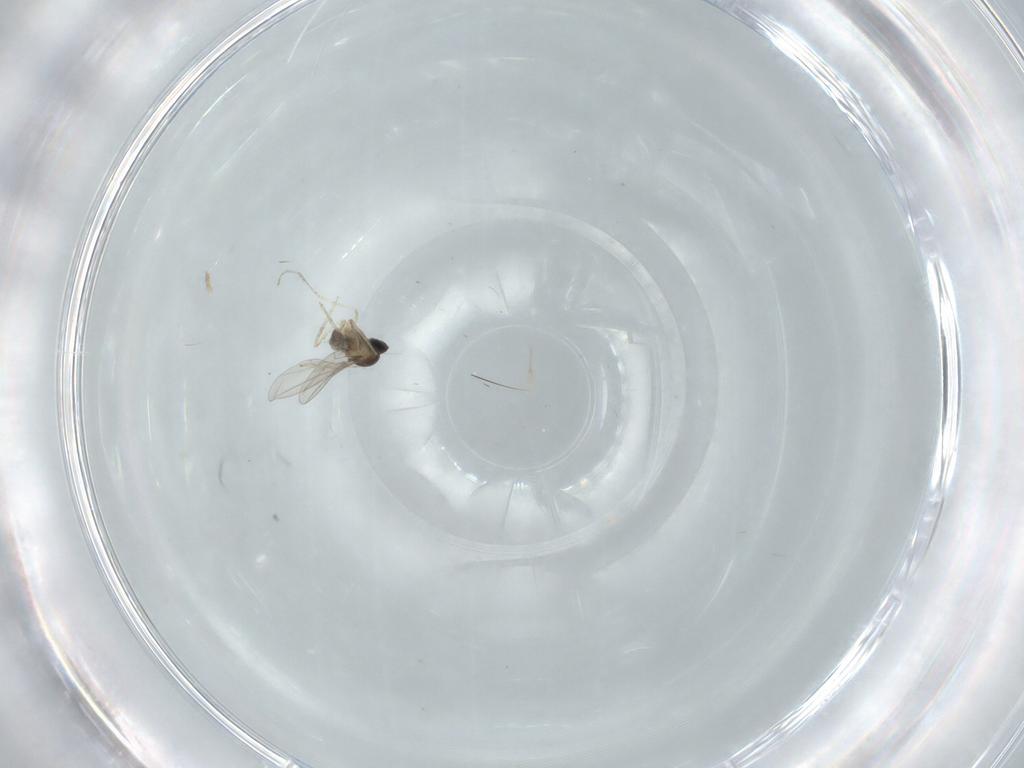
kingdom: Animalia
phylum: Arthropoda
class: Insecta
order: Diptera
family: Cecidomyiidae
